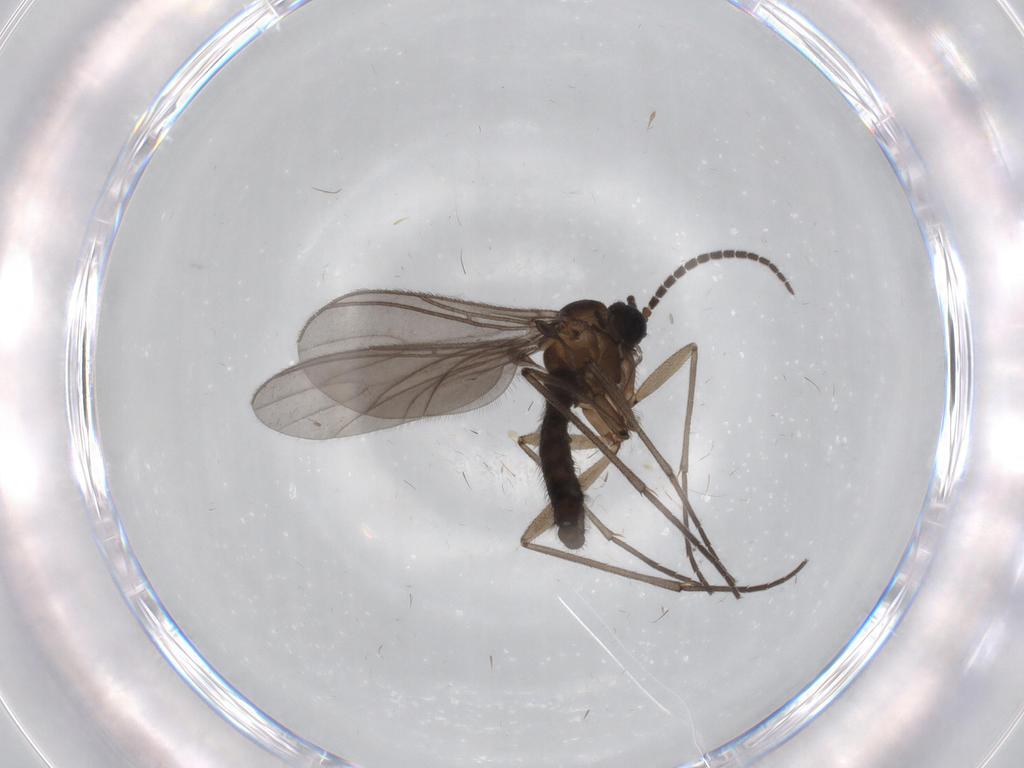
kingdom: Animalia
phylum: Arthropoda
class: Insecta
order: Diptera
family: Sciaridae
